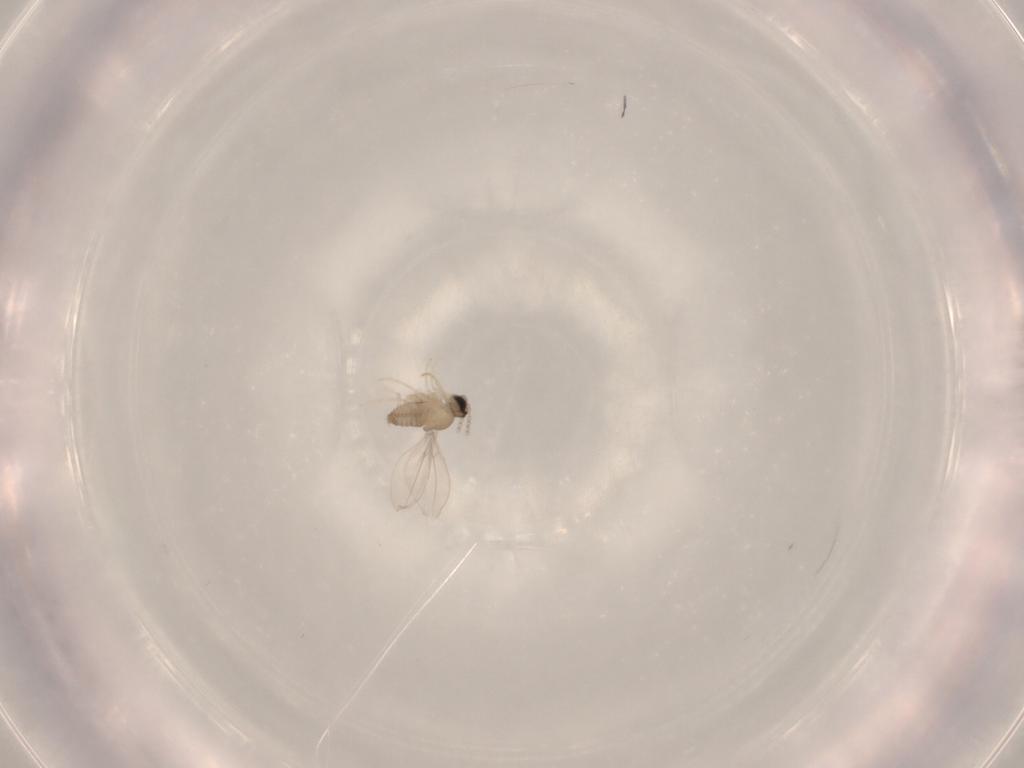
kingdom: Animalia
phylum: Arthropoda
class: Insecta
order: Diptera
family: Cecidomyiidae
